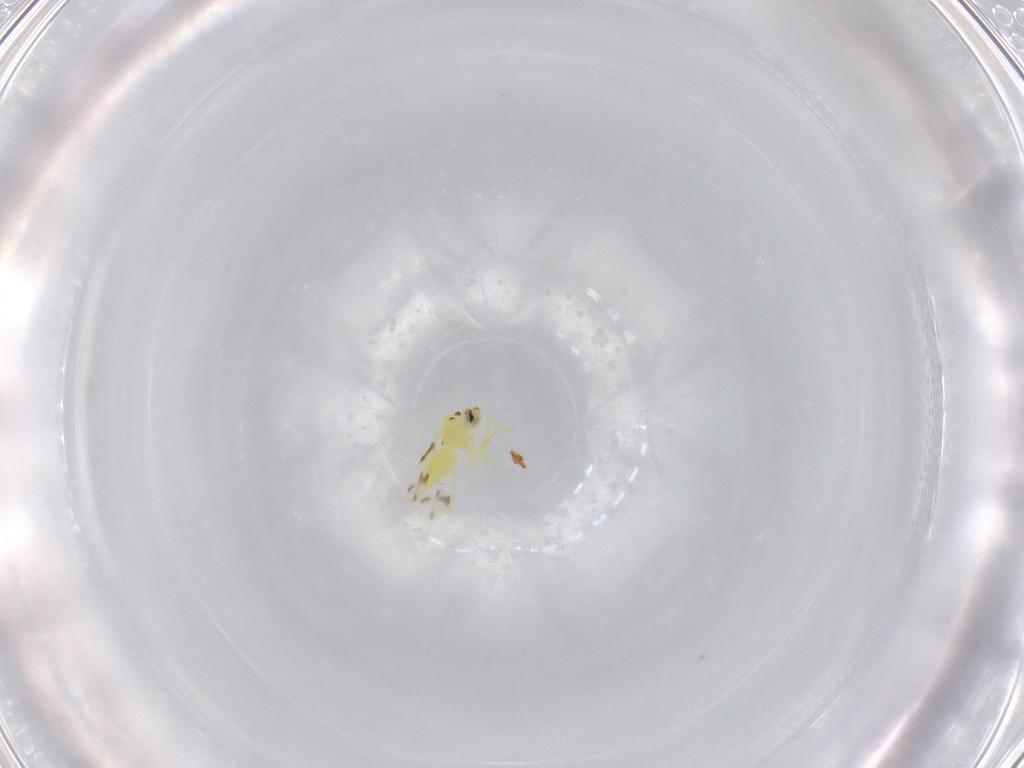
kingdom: Animalia
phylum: Arthropoda
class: Insecta
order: Hemiptera
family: Aleyrodidae
